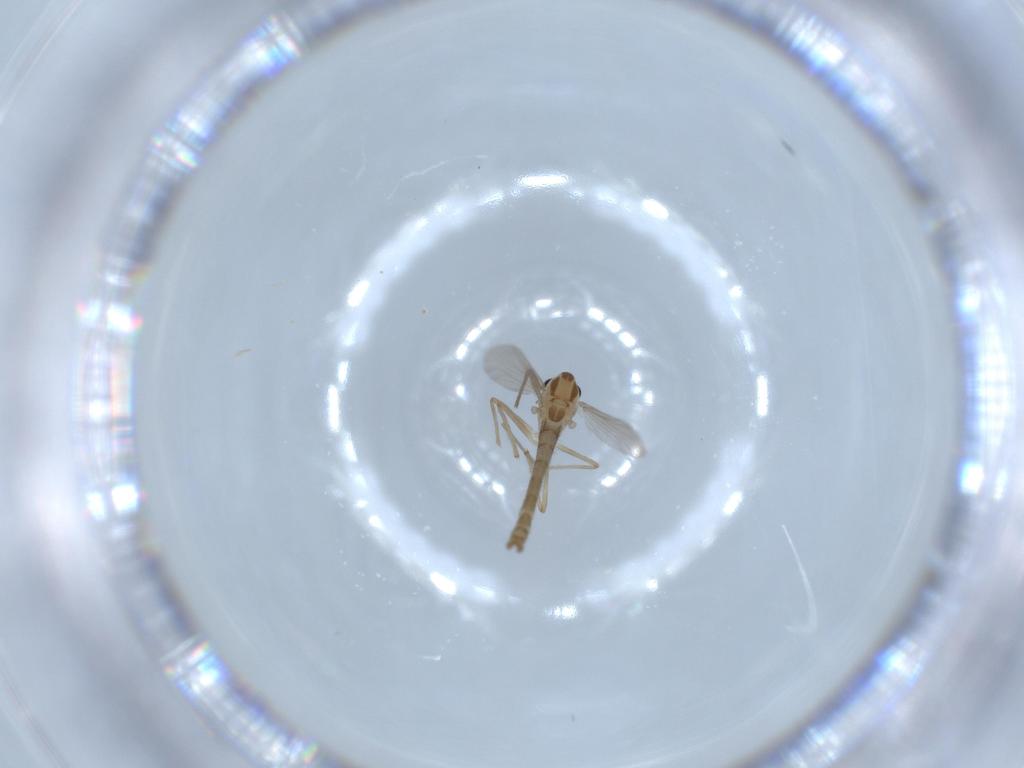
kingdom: Animalia
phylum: Arthropoda
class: Insecta
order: Diptera
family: Chironomidae
